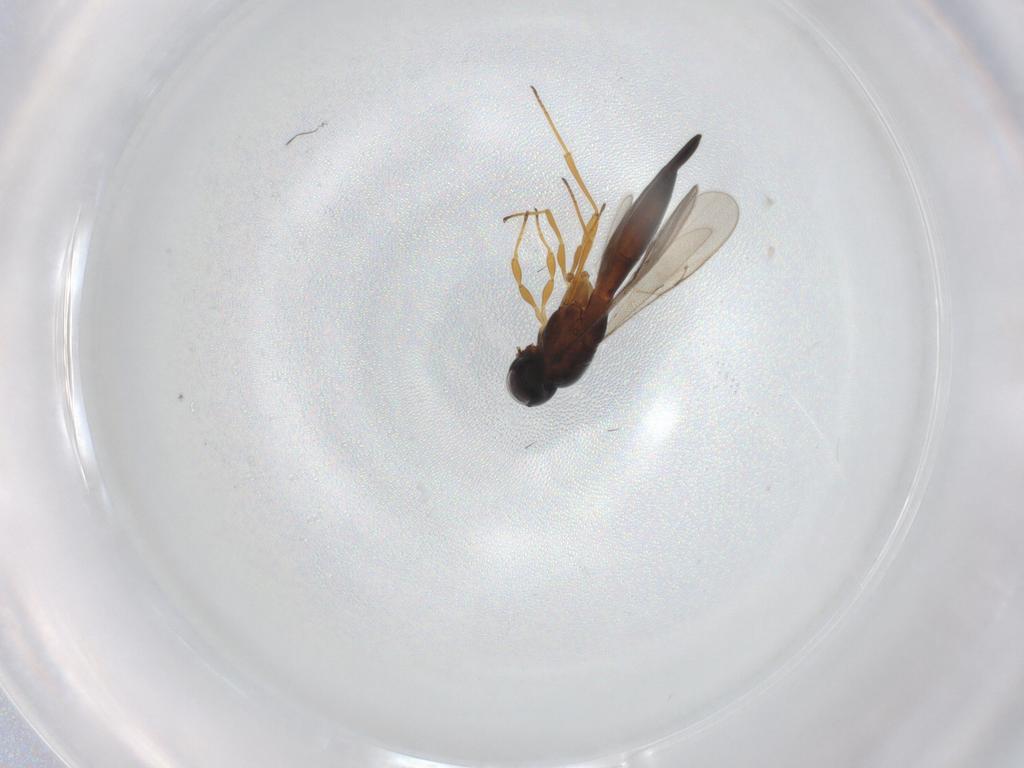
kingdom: Animalia
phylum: Arthropoda
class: Insecta
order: Hymenoptera
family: Scelionidae
